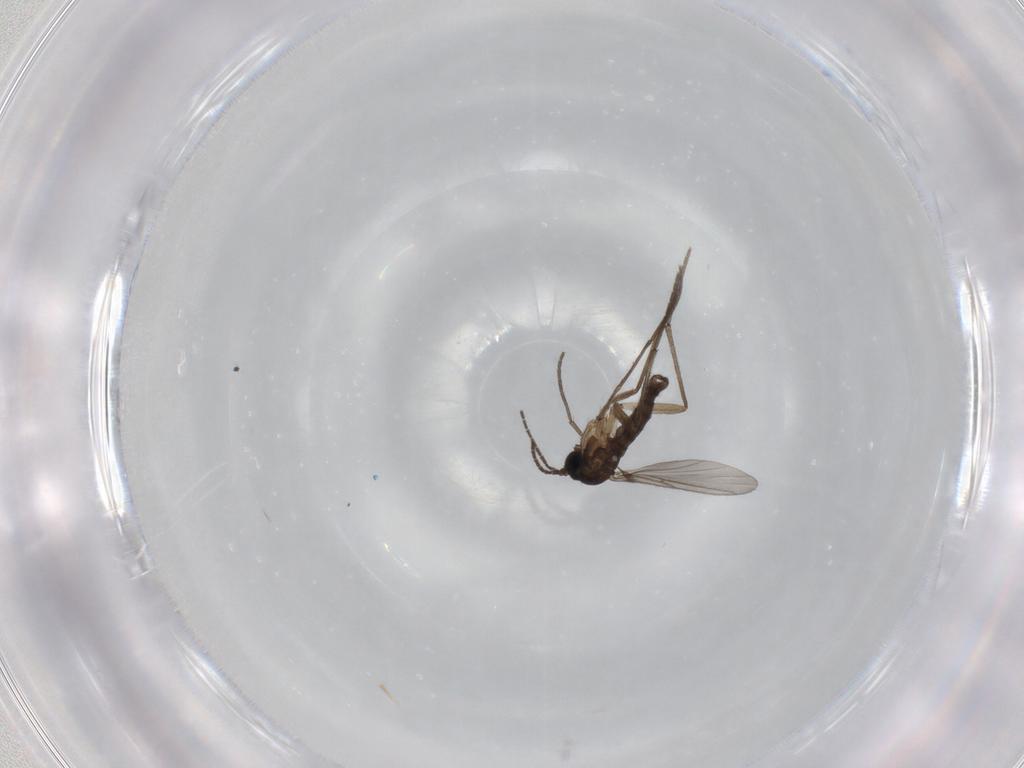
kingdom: Animalia
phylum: Arthropoda
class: Insecta
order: Diptera
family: Sciaridae
